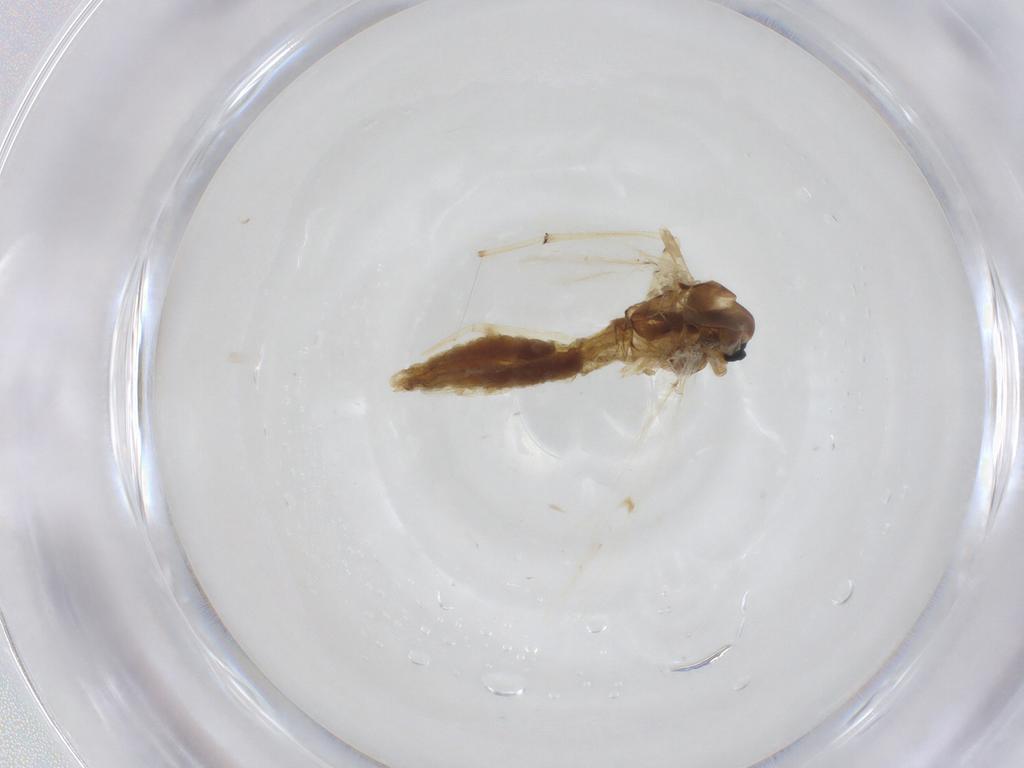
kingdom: Animalia
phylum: Arthropoda
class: Insecta
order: Diptera
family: Chironomidae
